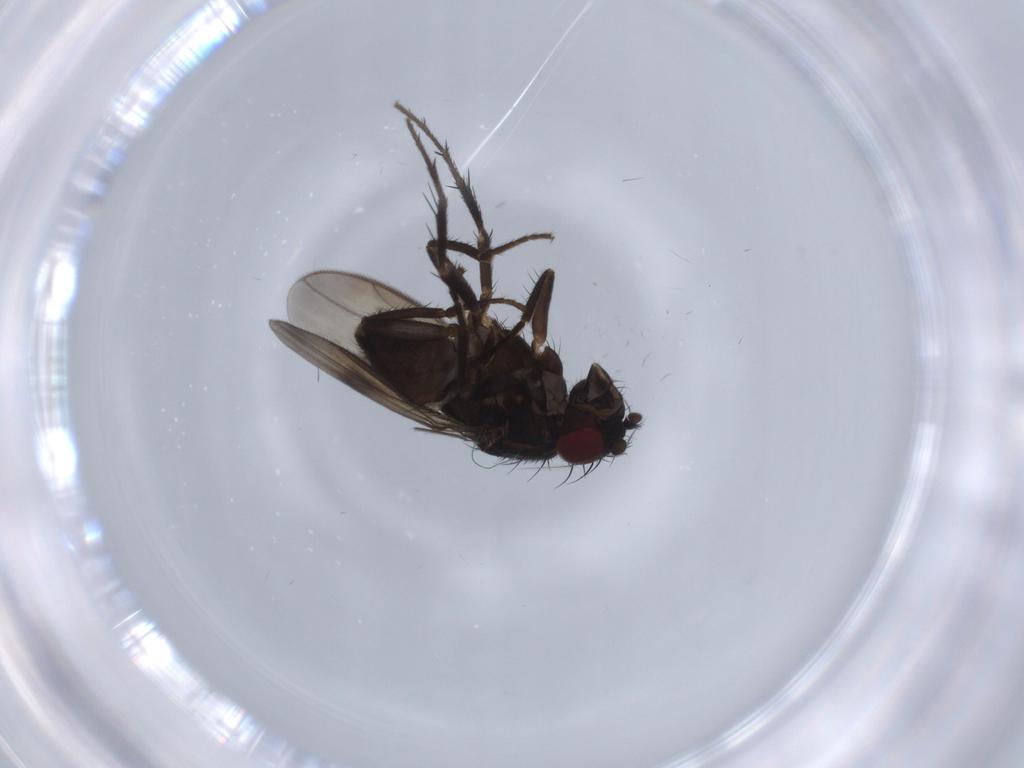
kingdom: Animalia
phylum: Arthropoda
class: Insecta
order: Diptera
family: Sciaridae
